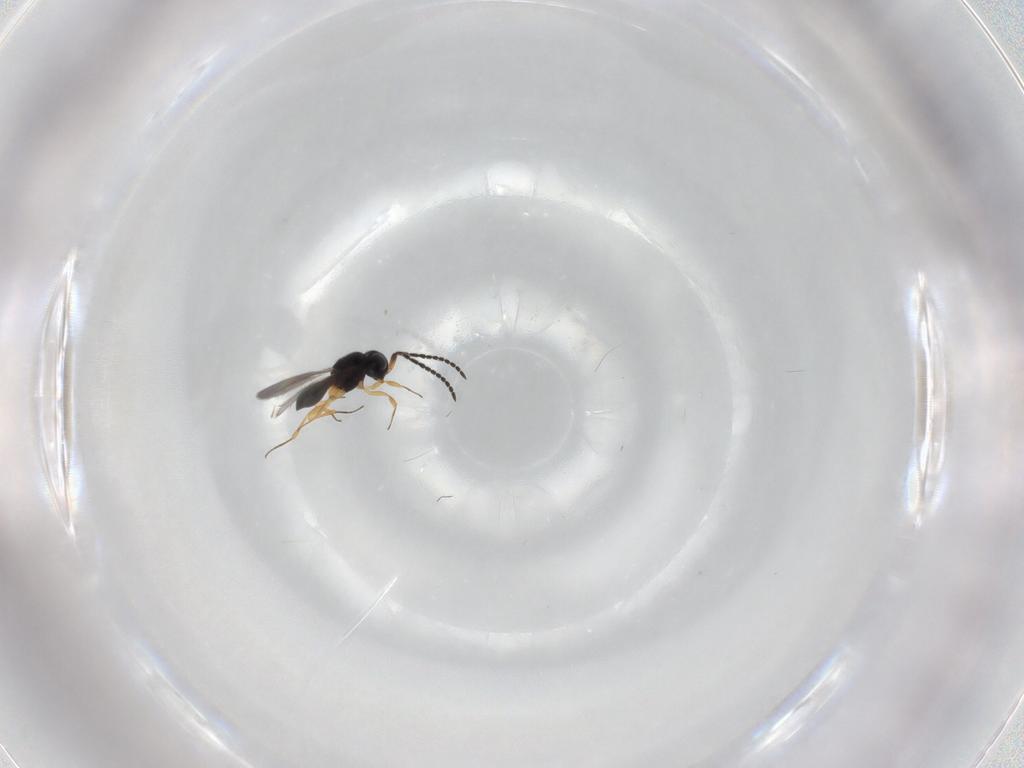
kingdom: Animalia
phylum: Arthropoda
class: Insecta
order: Hymenoptera
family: Scelionidae
